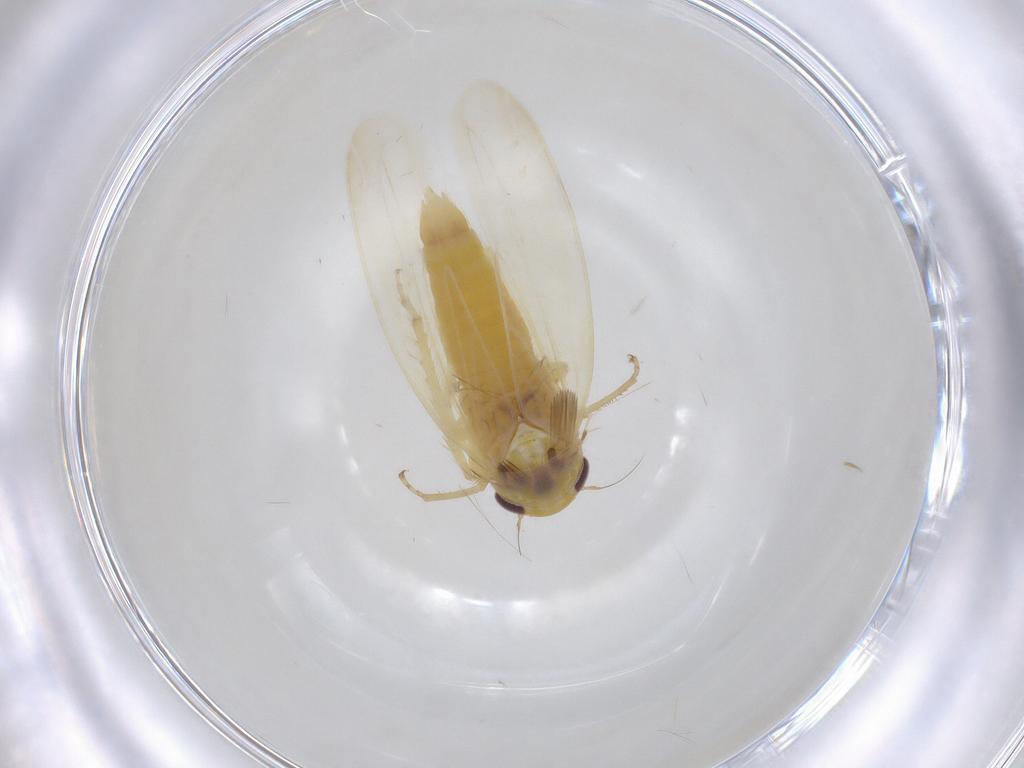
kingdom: Animalia
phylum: Arthropoda
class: Insecta
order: Hemiptera
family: Cicadellidae
